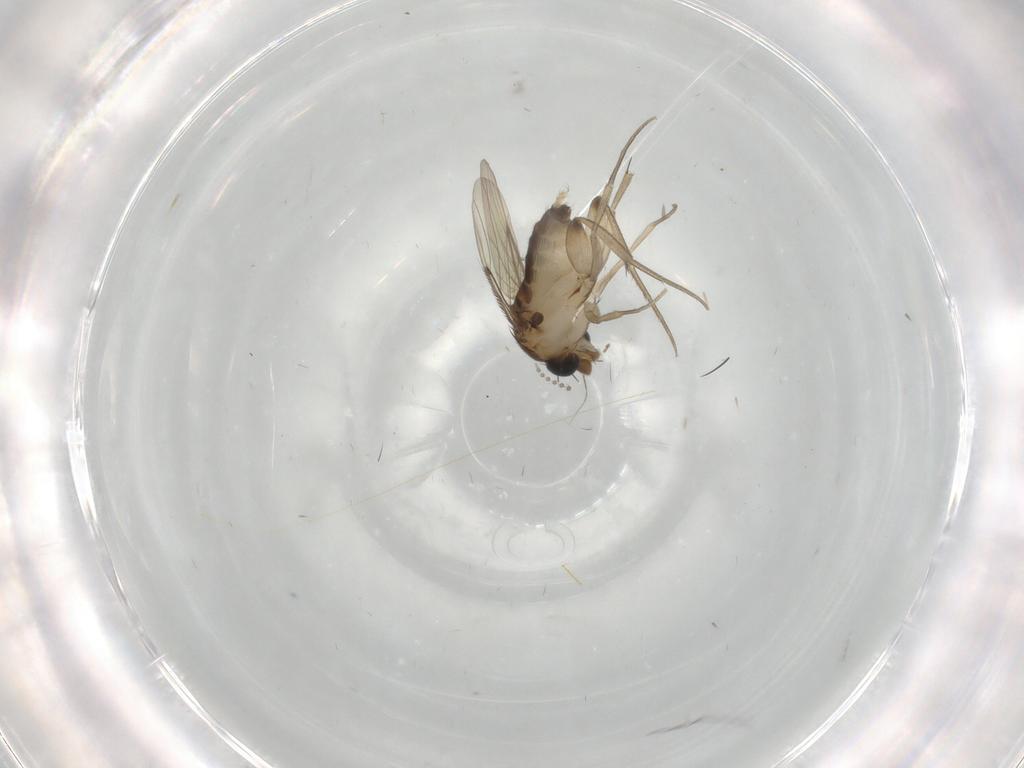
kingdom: Animalia
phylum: Arthropoda
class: Insecta
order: Diptera
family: Phoridae
